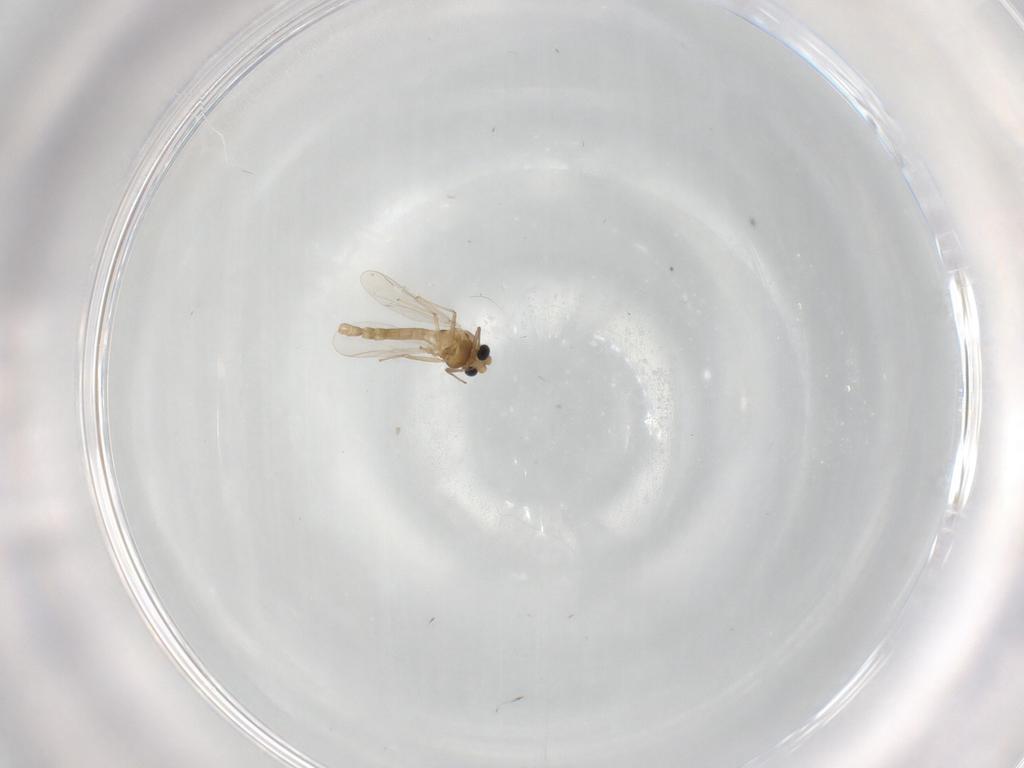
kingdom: Animalia
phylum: Arthropoda
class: Insecta
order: Diptera
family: Chironomidae
